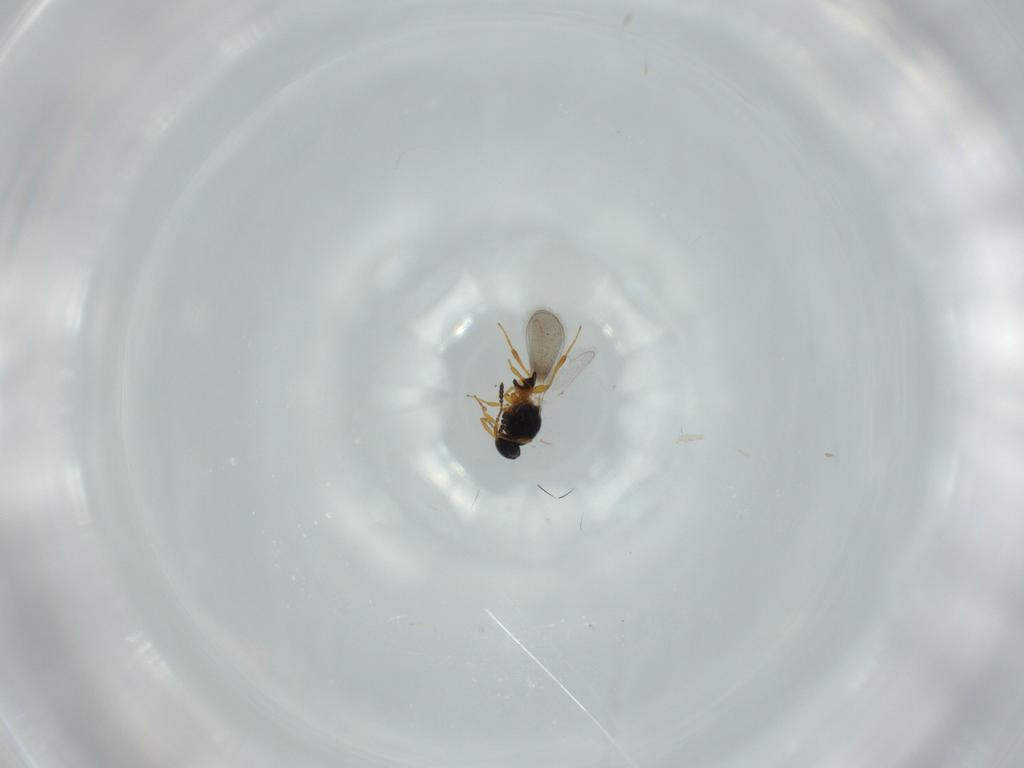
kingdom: Animalia
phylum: Arthropoda
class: Insecta
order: Hymenoptera
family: Platygastridae
